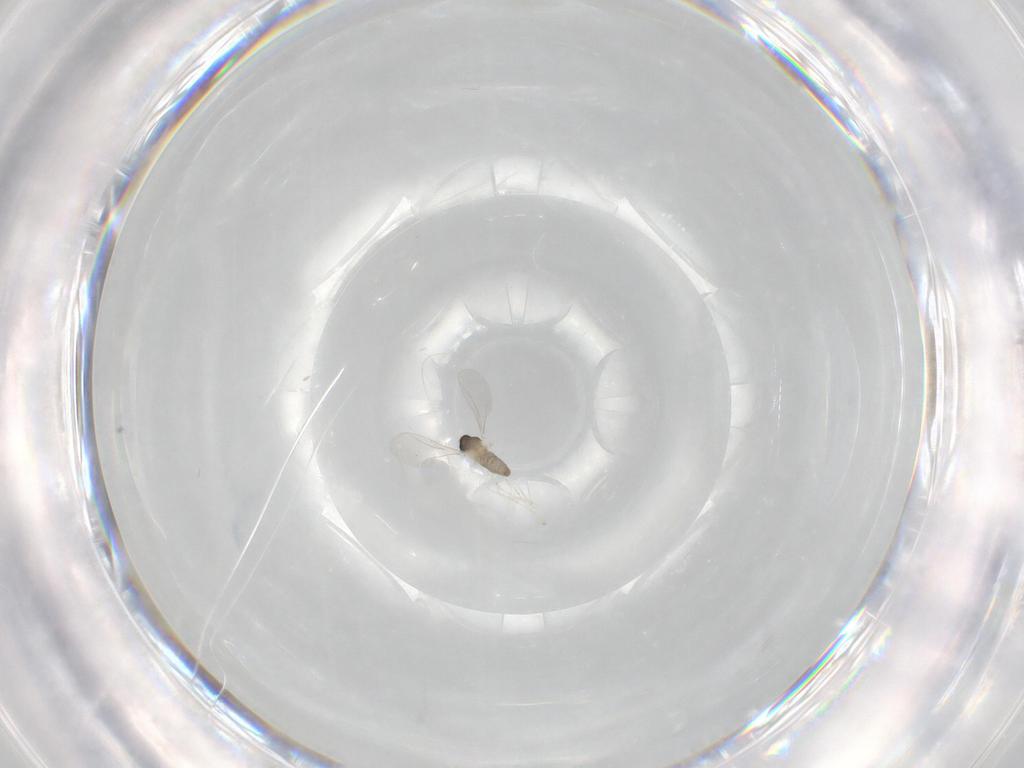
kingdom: Animalia
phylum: Arthropoda
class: Insecta
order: Diptera
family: Cecidomyiidae
